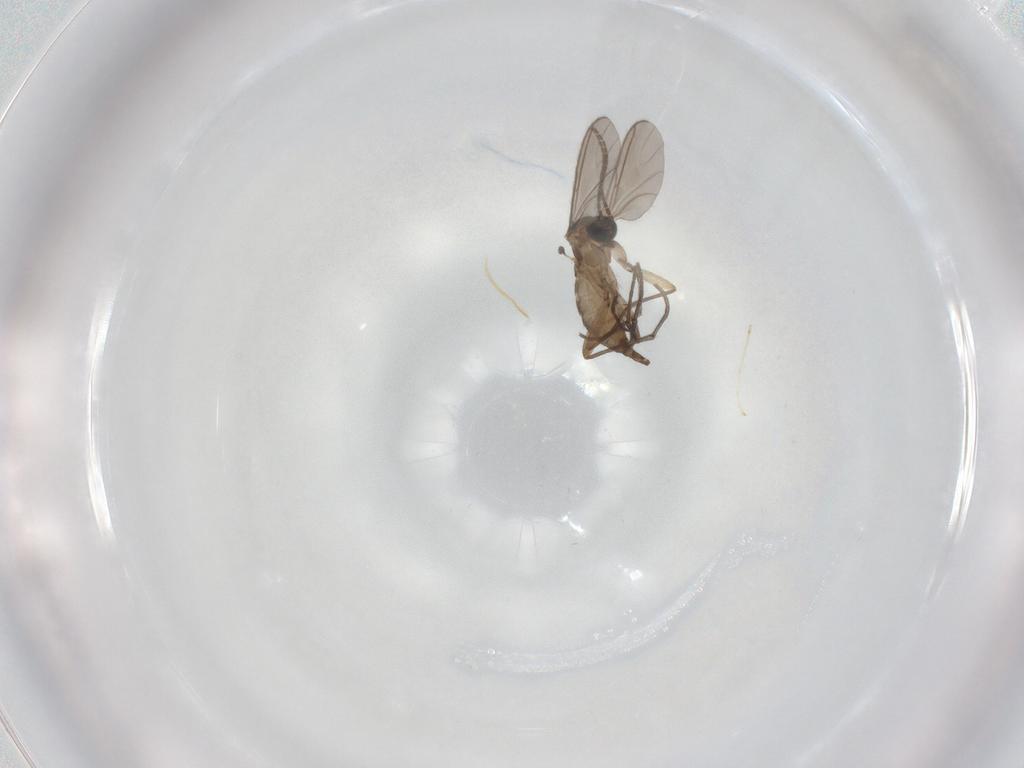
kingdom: Animalia
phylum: Arthropoda
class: Insecta
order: Diptera
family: Sciaridae
